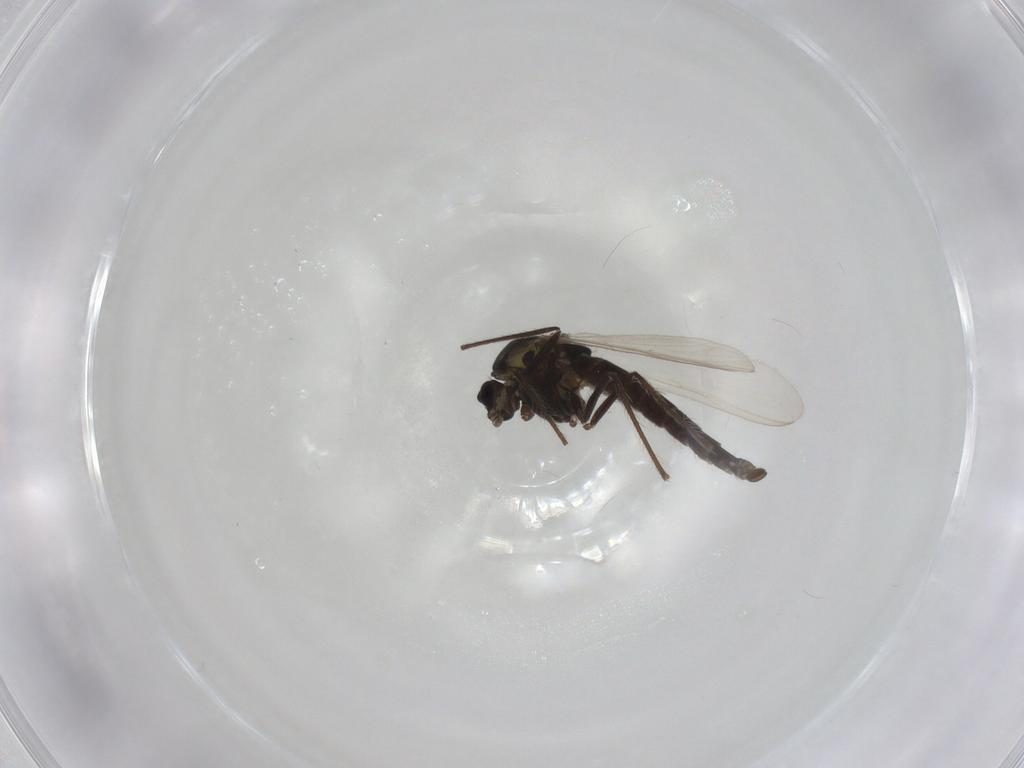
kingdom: Animalia
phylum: Arthropoda
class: Insecta
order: Diptera
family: Chironomidae
